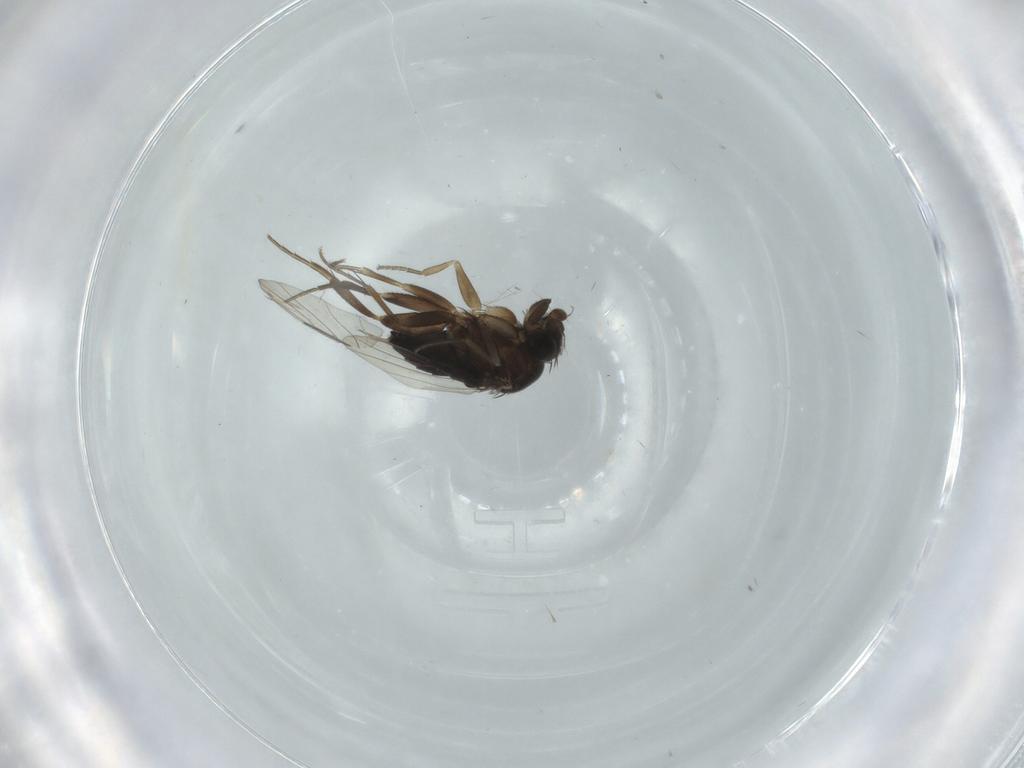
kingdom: Animalia
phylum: Arthropoda
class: Insecta
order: Diptera
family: Phoridae
